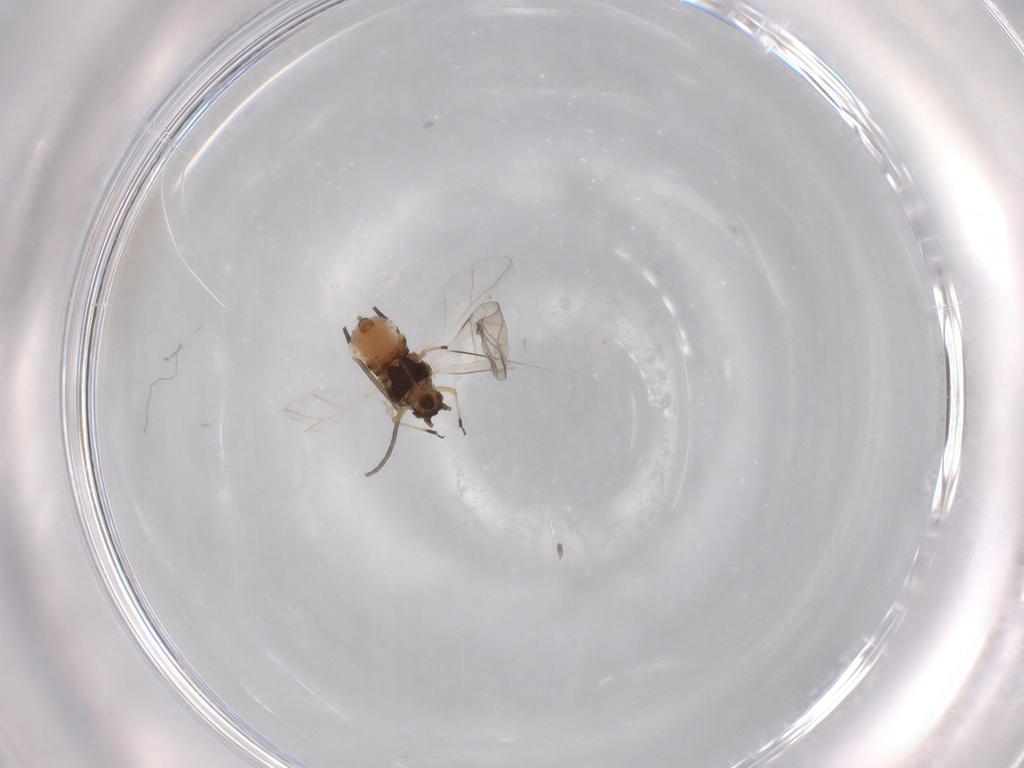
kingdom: Animalia
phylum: Arthropoda
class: Insecta
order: Hemiptera
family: Aphididae
